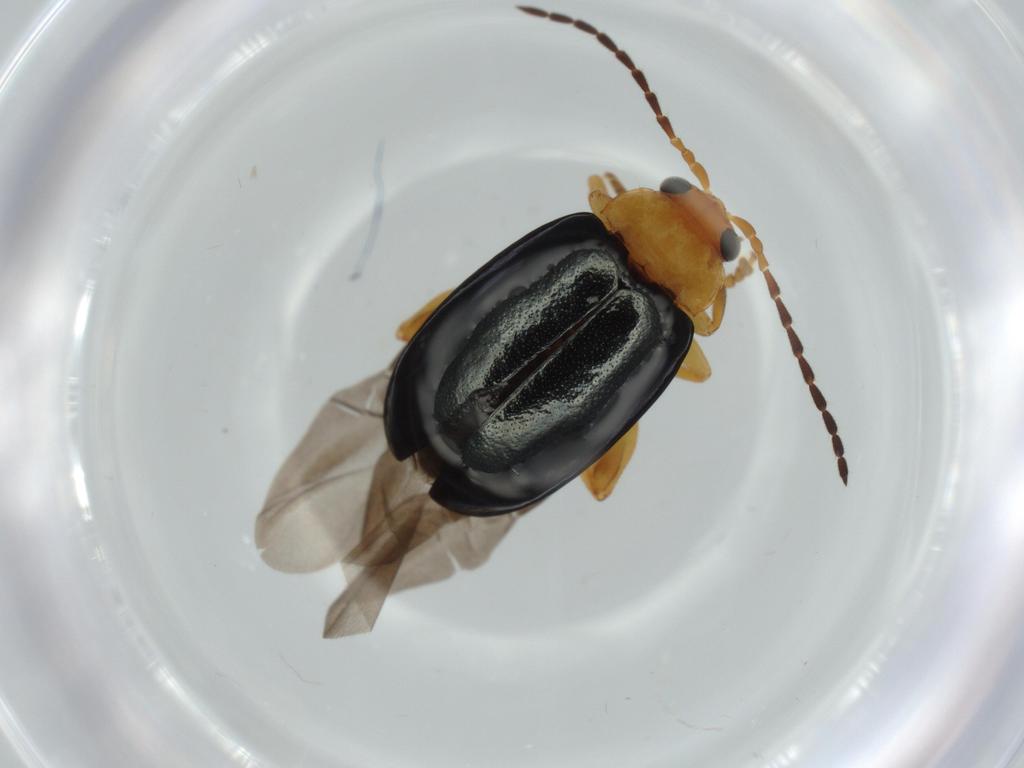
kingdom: Animalia
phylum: Arthropoda
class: Insecta
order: Coleoptera
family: Chrysomelidae
